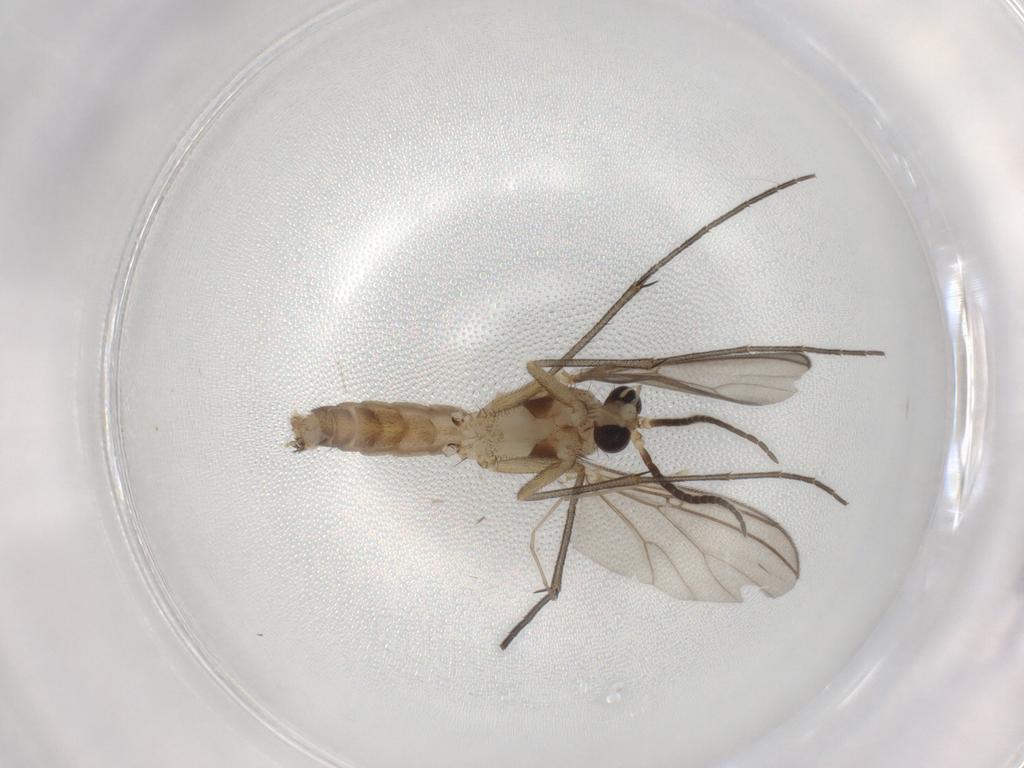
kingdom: Animalia
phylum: Arthropoda
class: Insecta
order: Diptera
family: Mycetophilidae
